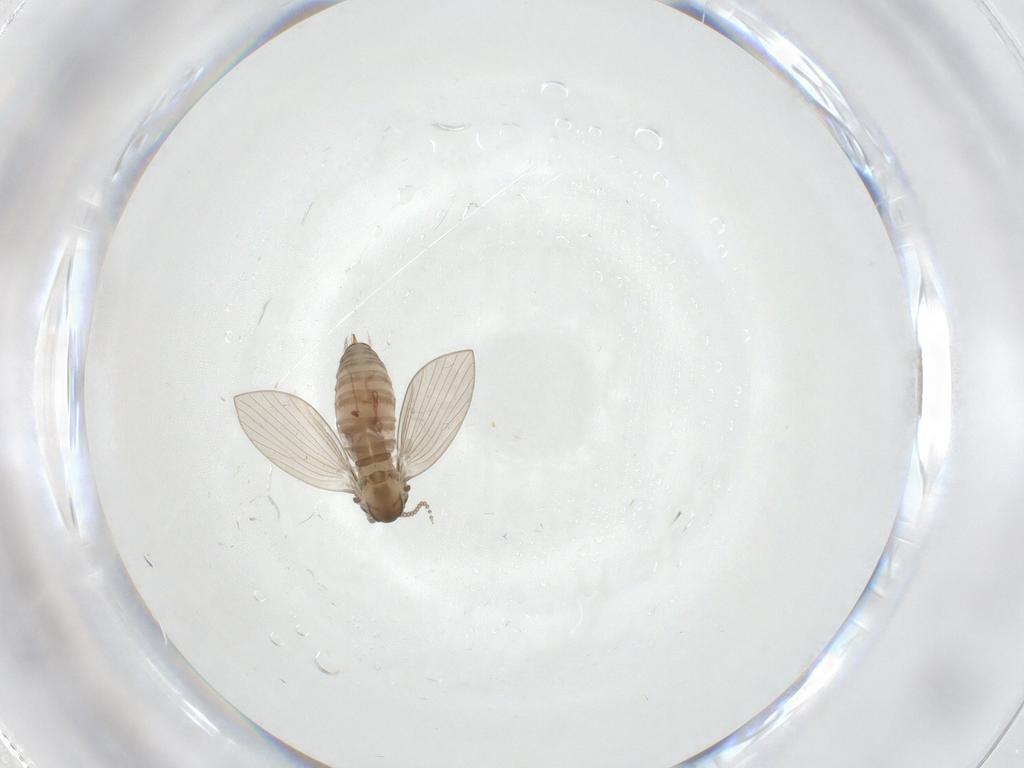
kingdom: Animalia
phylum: Arthropoda
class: Insecta
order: Diptera
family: Psychodidae
